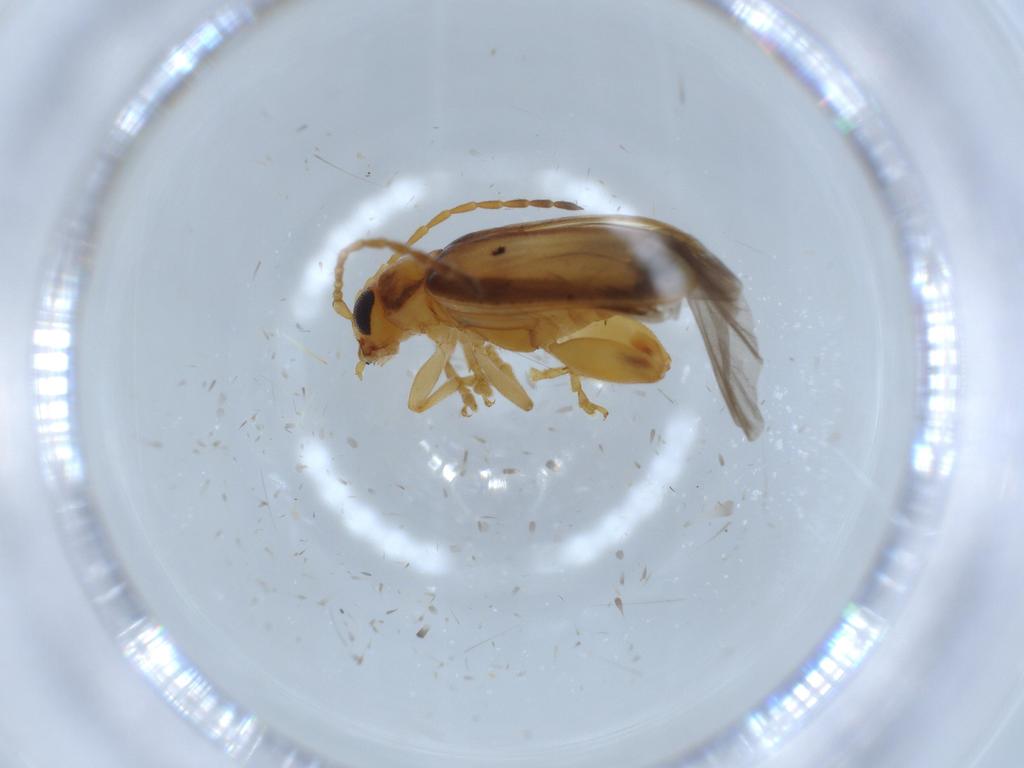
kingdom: Animalia
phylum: Arthropoda
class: Insecta
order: Coleoptera
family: Chrysomelidae
